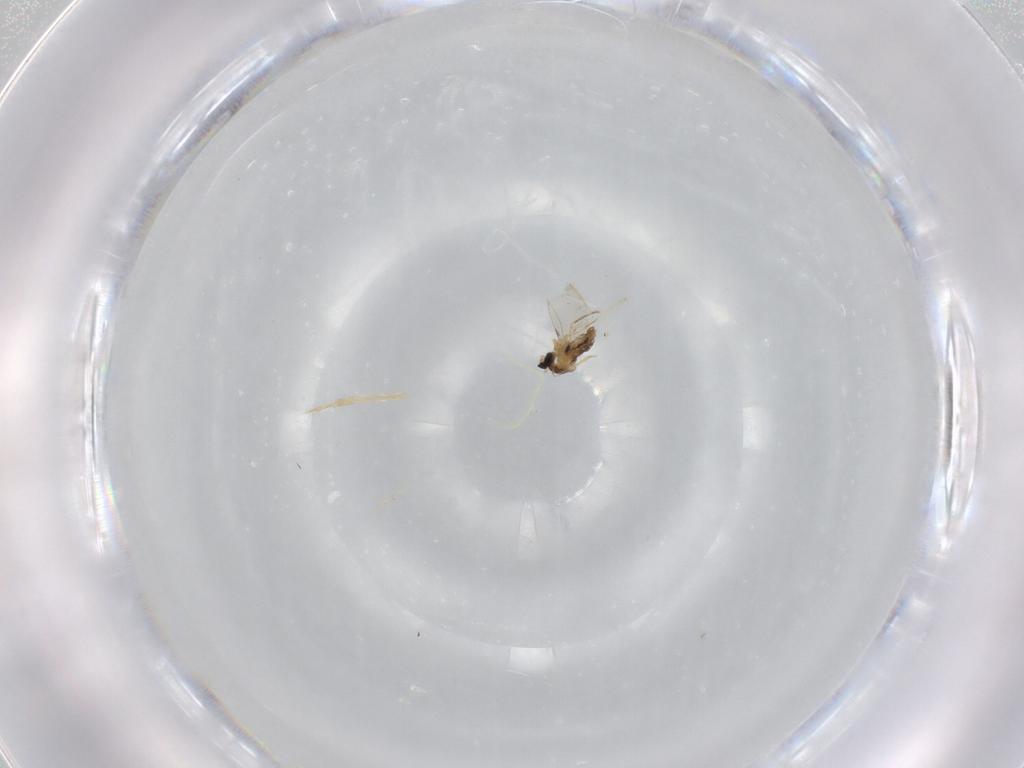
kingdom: Animalia
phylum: Arthropoda
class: Insecta
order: Diptera
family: Cecidomyiidae
